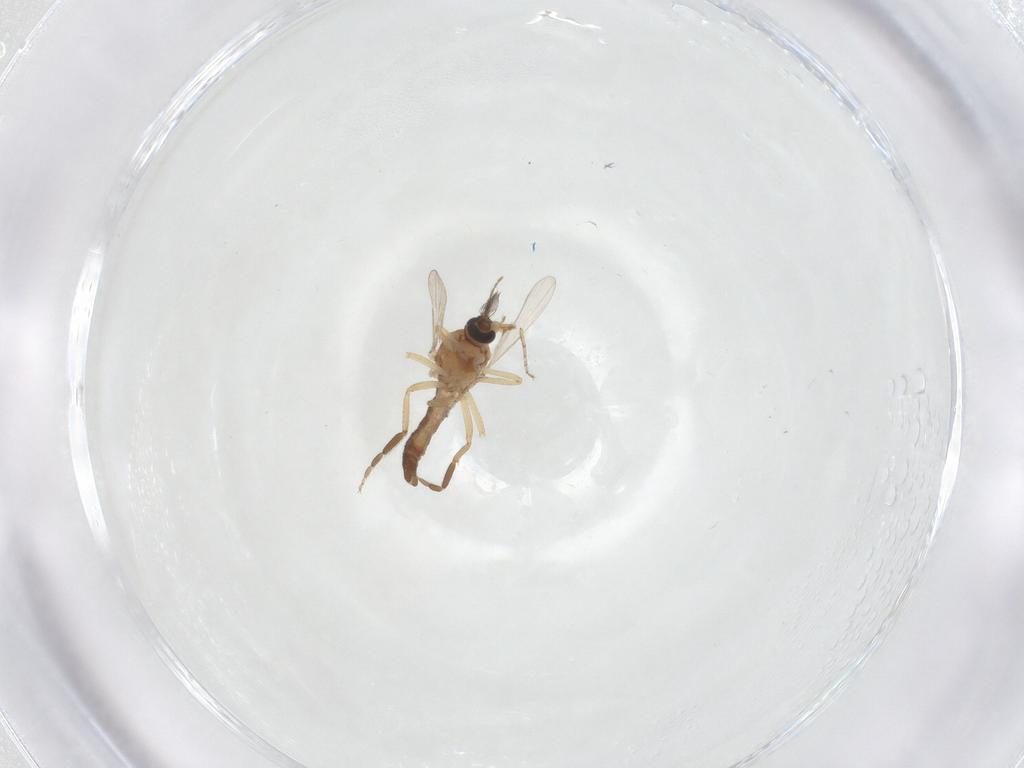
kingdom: Animalia
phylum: Arthropoda
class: Insecta
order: Diptera
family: Ceratopogonidae
